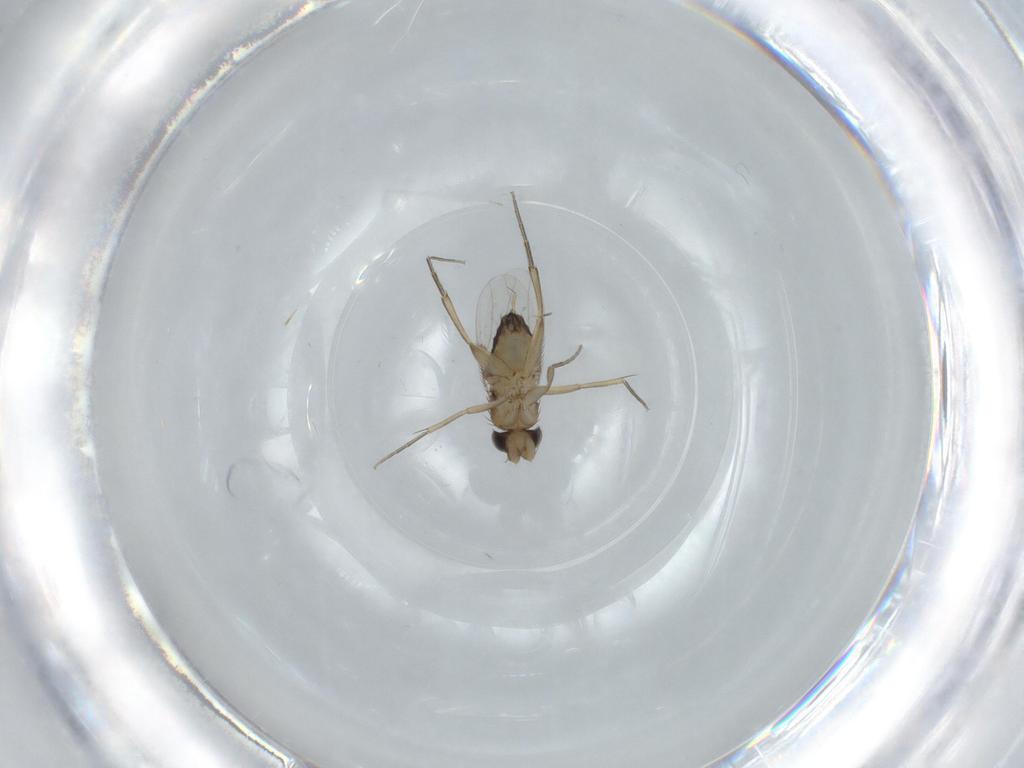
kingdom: Animalia
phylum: Arthropoda
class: Insecta
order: Diptera
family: Cecidomyiidae
